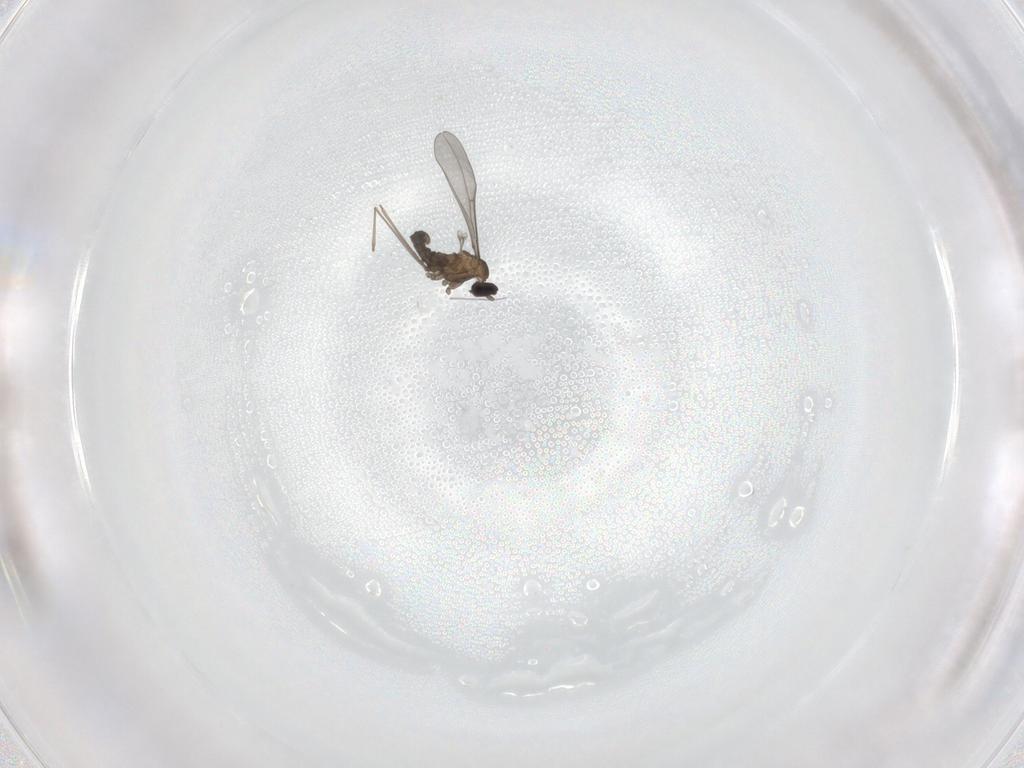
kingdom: Animalia
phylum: Arthropoda
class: Insecta
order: Diptera
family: Cecidomyiidae
